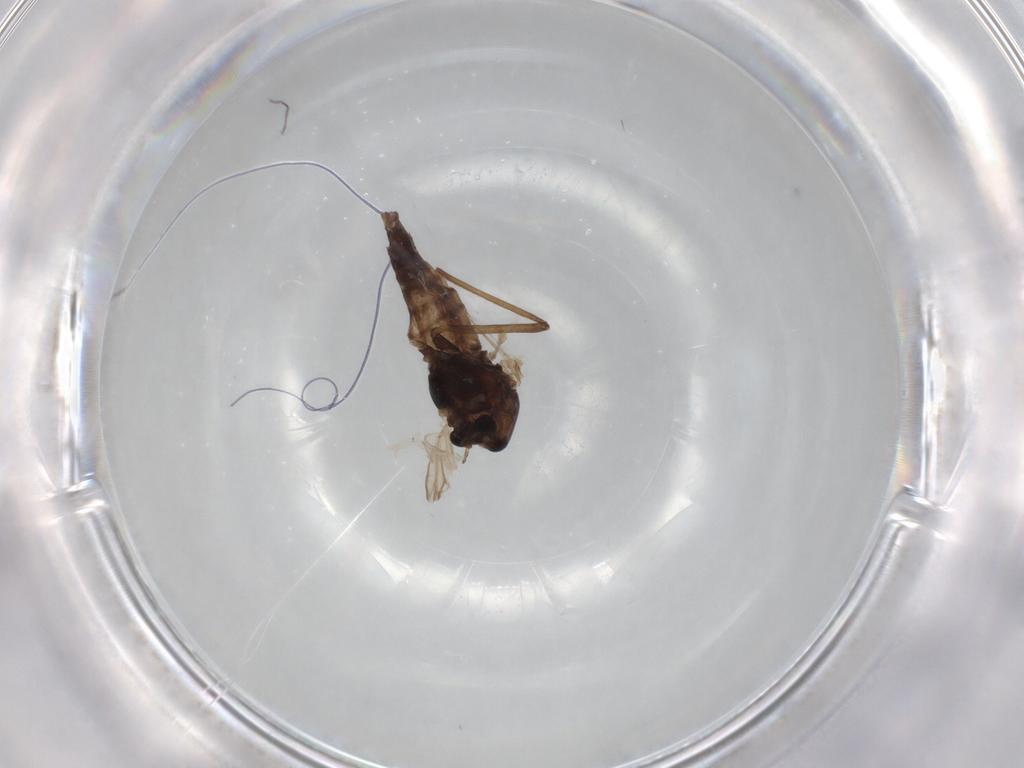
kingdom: Animalia
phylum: Arthropoda
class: Insecta
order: Diptera
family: Chironomidae
